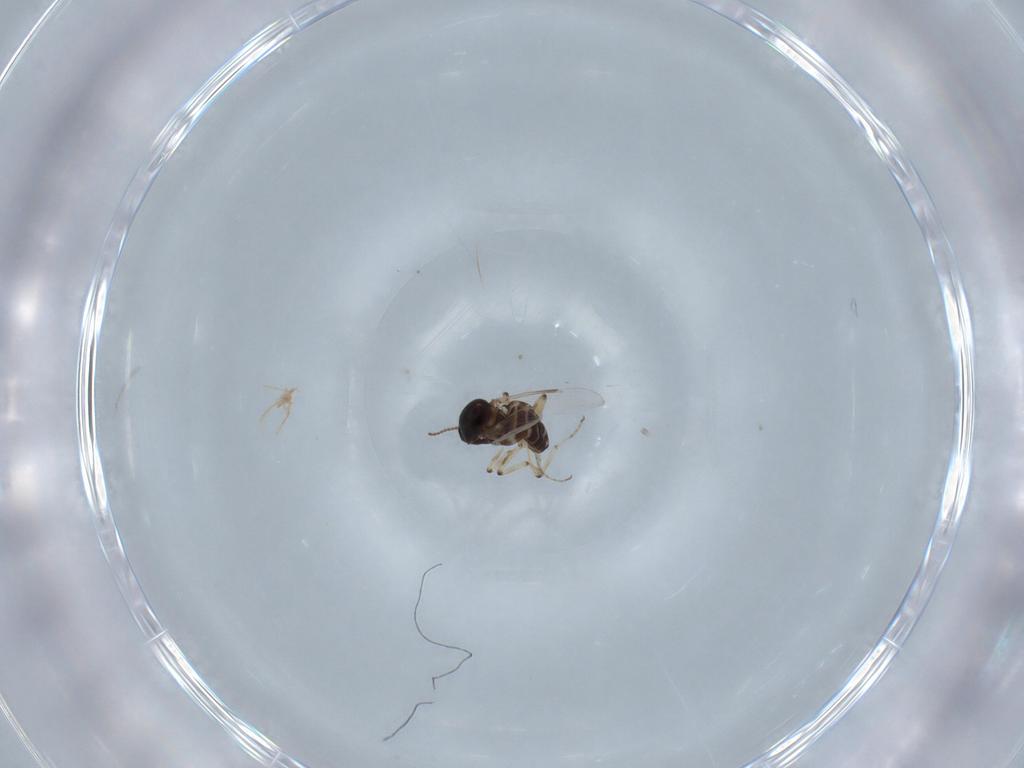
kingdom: Animalia
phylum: Arthropoda
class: Insecta
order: Diptera
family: Ceratopogonidae
